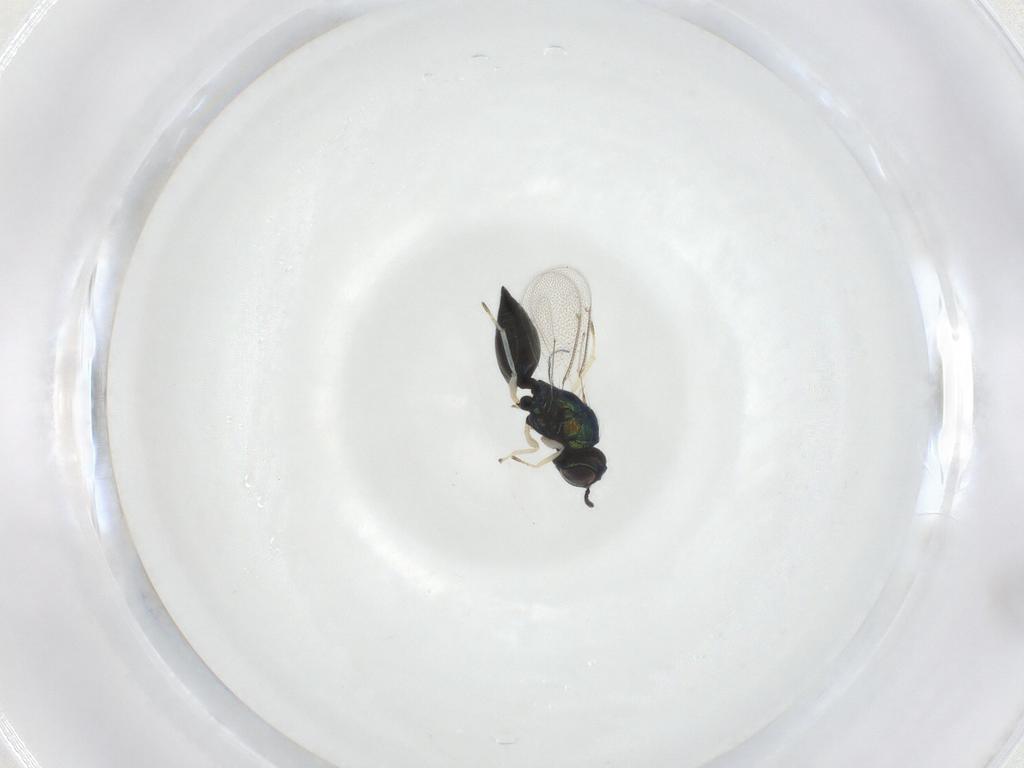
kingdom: Animalia
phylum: Arthropoda
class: Insecta
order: Hymenoptera
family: Eulophidae
